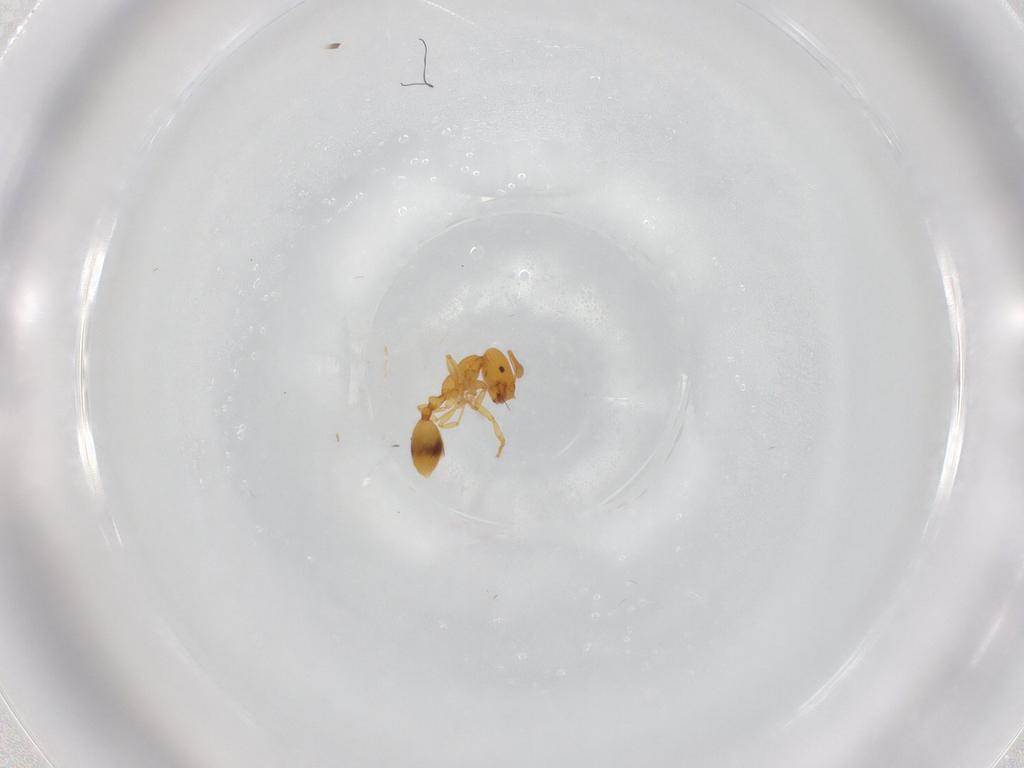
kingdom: Animalia
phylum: Arthropoda
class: Insecta
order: Hymenoptera
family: Formicidae
